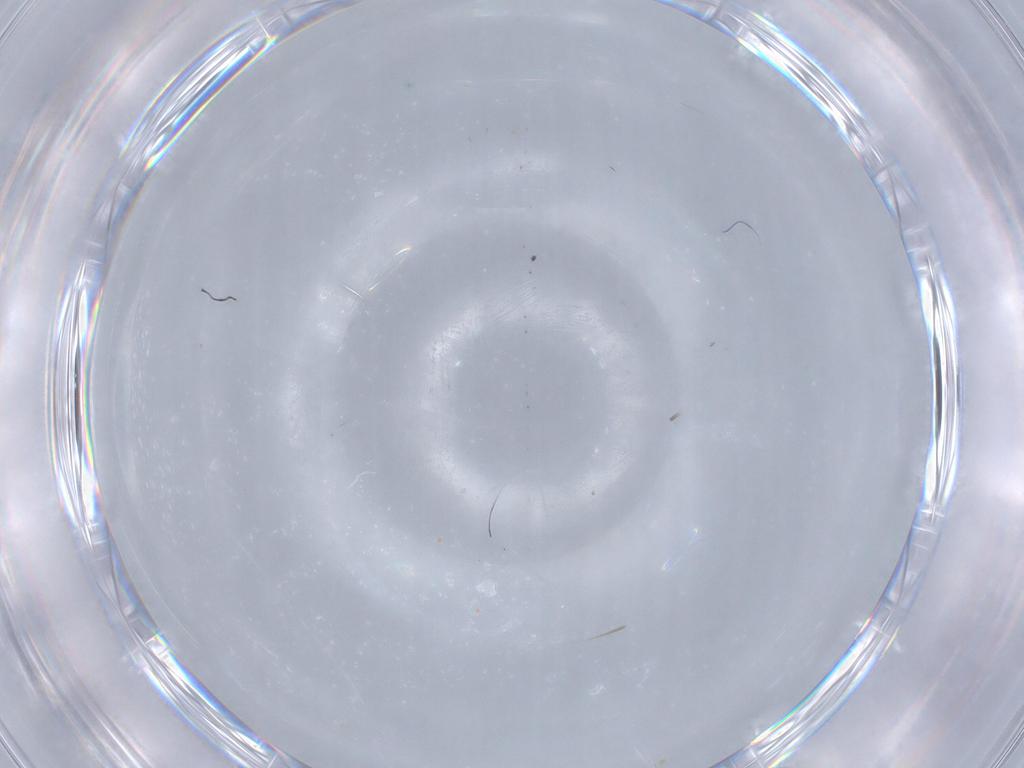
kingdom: Animalia
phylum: Arthropoda
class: Insecta
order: Diptera
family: Chironomidae
